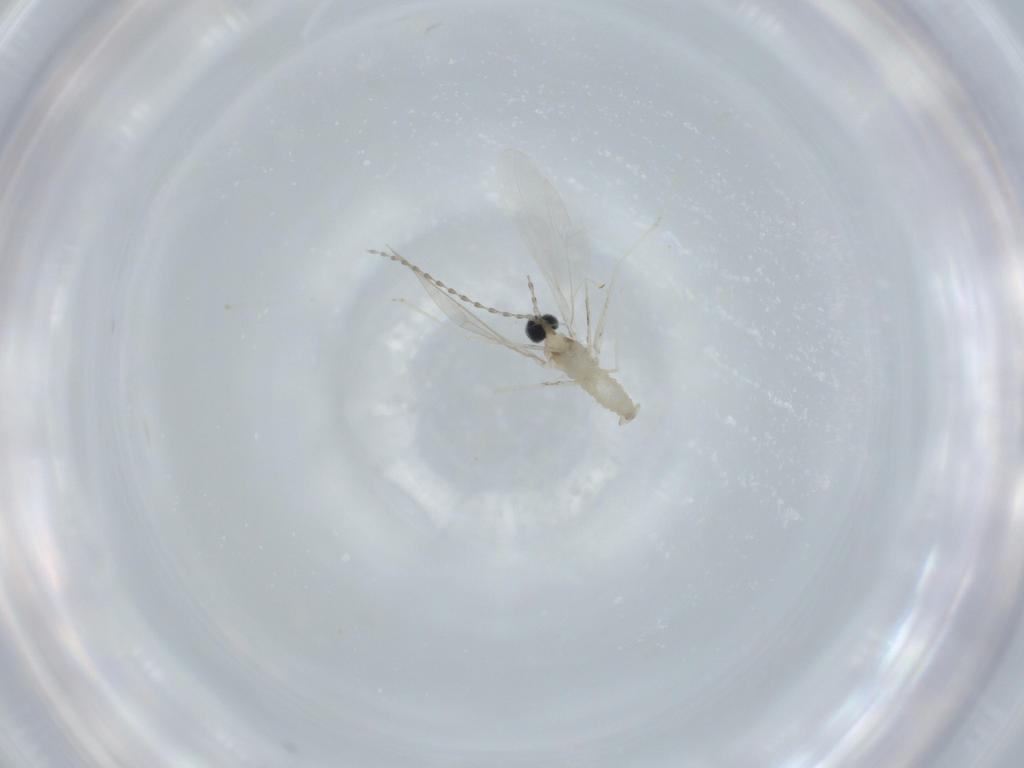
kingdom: Animalia
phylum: Arthropoda
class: Insecta
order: Diptera
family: Cecidomyiidae
